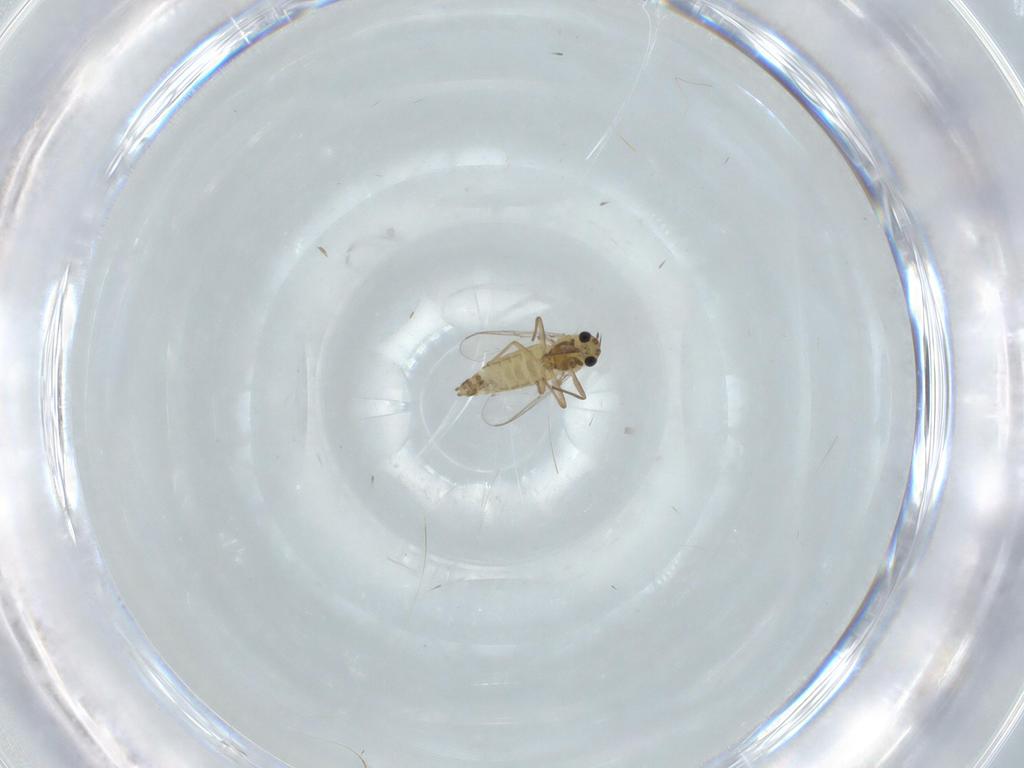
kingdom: Animalia
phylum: Arthropoda
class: Insecta
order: Diptera
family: Chironomidae
